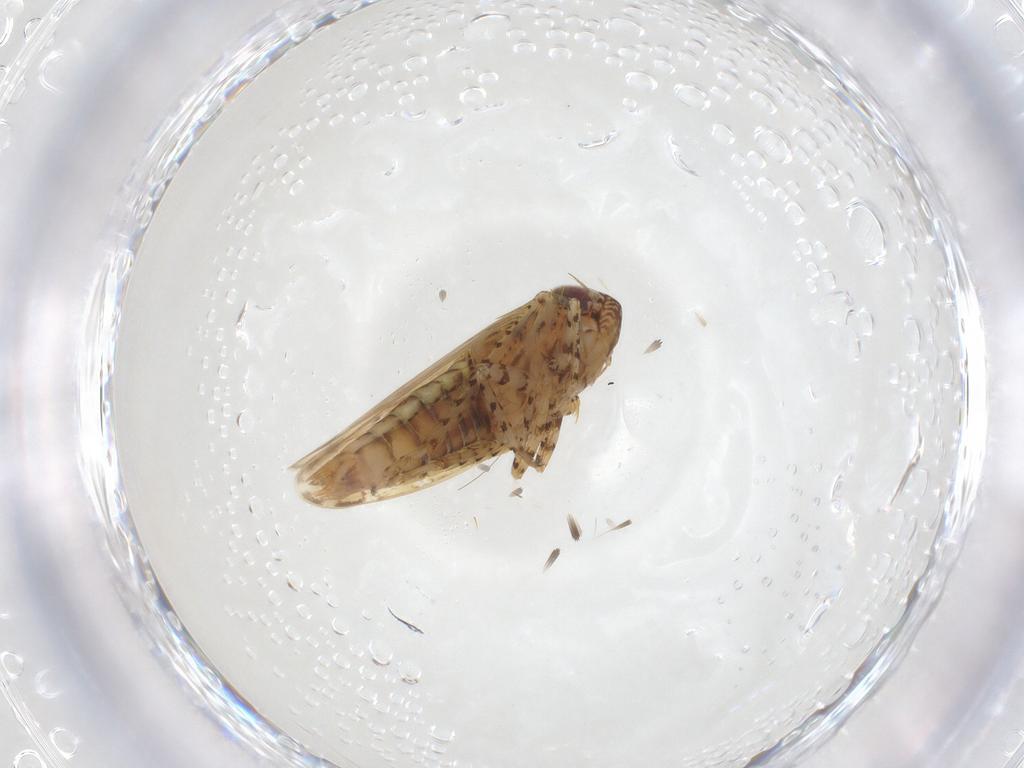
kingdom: Animalia
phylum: Arthropoda
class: Insecta
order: Hemiptera
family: Cicadellidae
